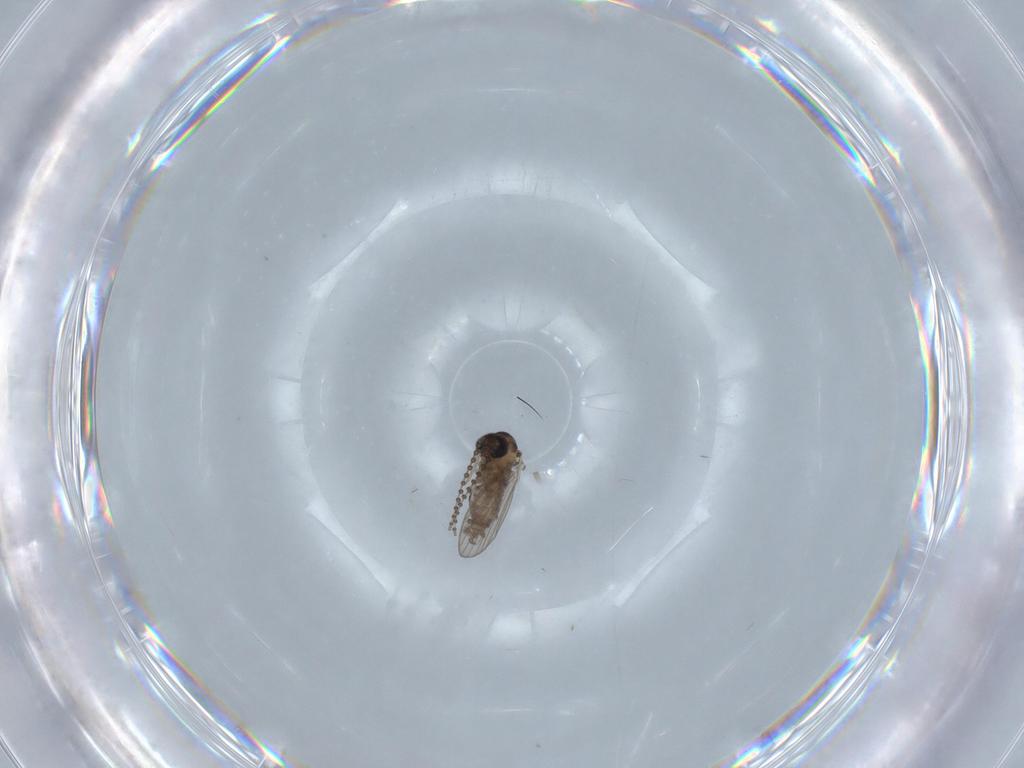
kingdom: Animalia
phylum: Arthropoda
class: Insecta
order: Diptera
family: Psychodidae
